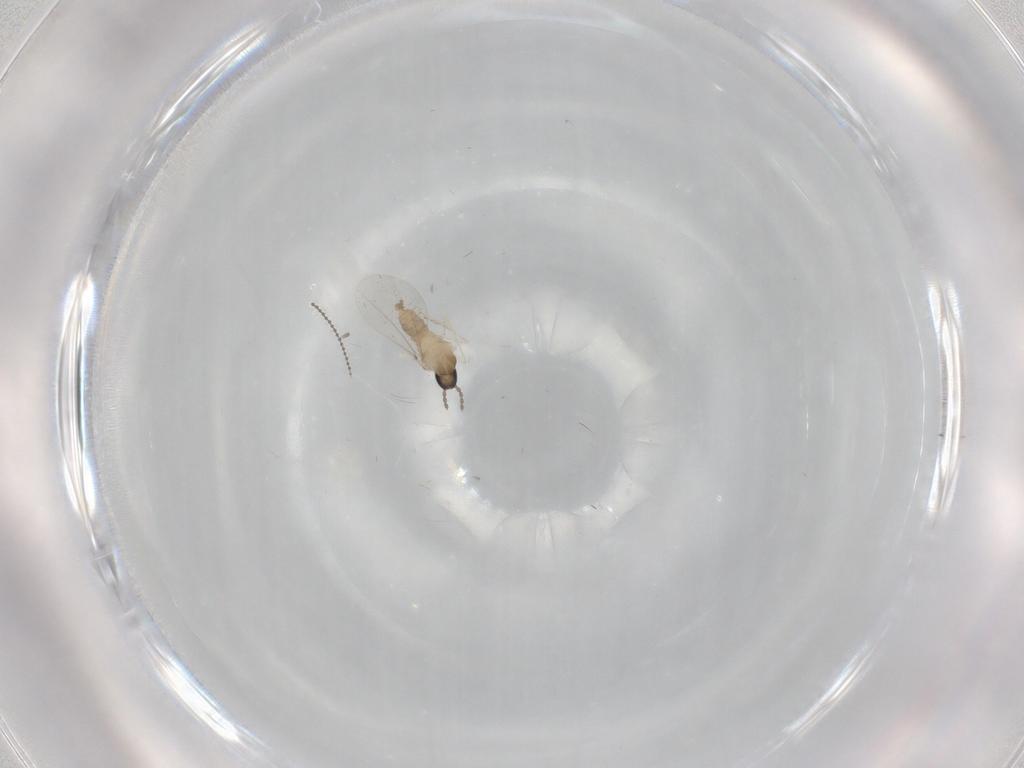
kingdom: Animalia
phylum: Arthropoda
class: Insecta
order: Diptera
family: Cecidomyiidae
